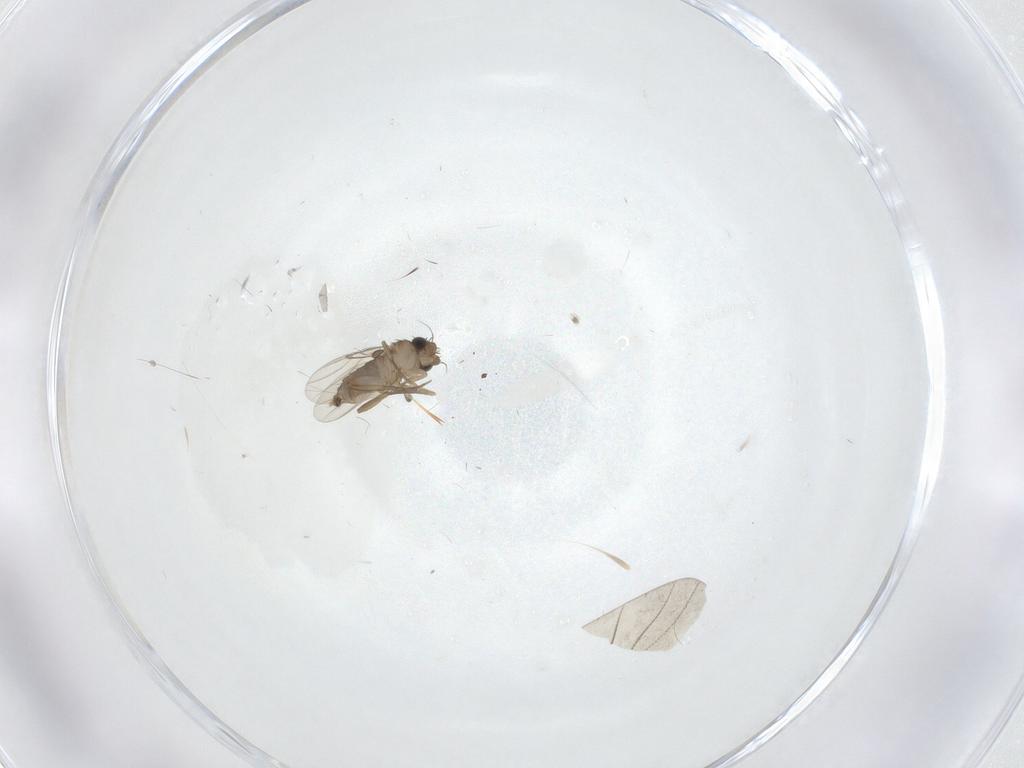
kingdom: Animalia
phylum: Arthropoda
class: Insecta
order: Diptera
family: Phoridae
